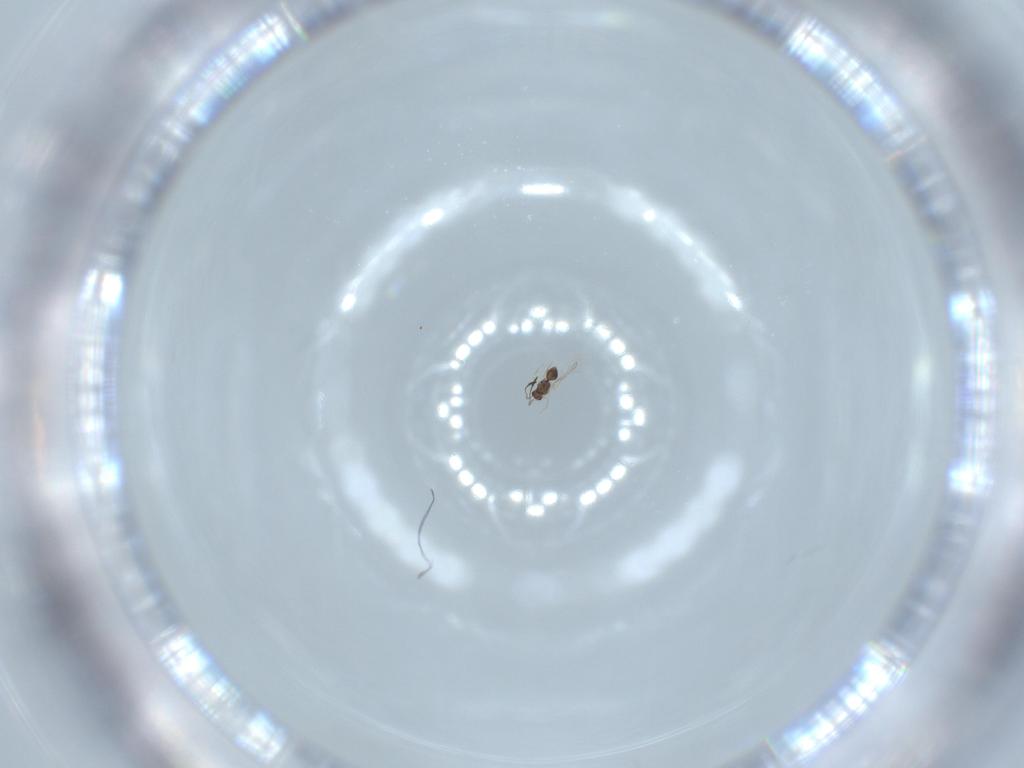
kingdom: Animalia
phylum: Arthropoda
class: Insecta
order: Hymenoptera
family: Mymaridae
